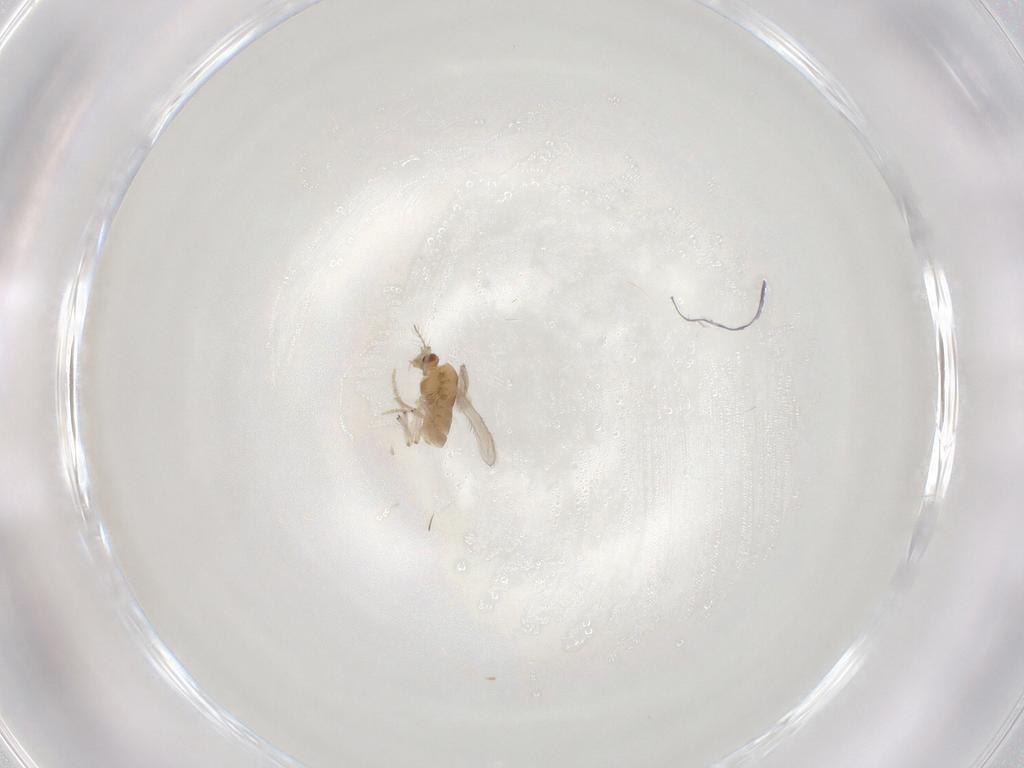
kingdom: Animalia
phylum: Arthropoda
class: Insecta
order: Diptera
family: Chironomidae
